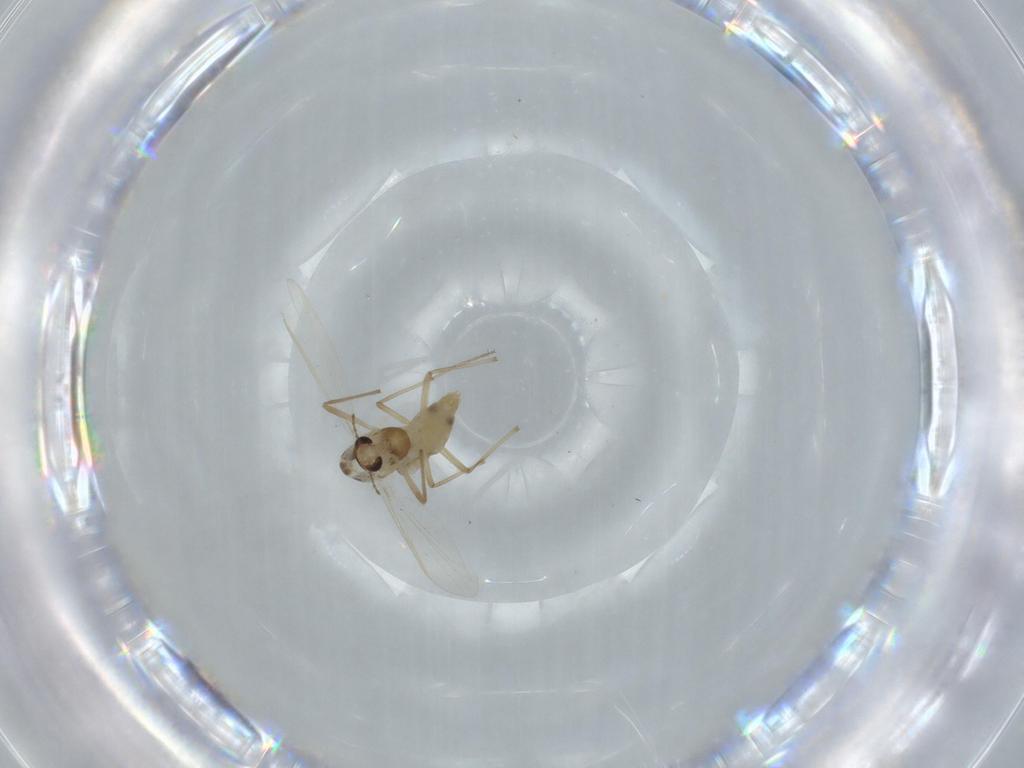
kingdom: Animalia
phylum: Arthropoda
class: Insecta
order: Diptera
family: Chironomidae
